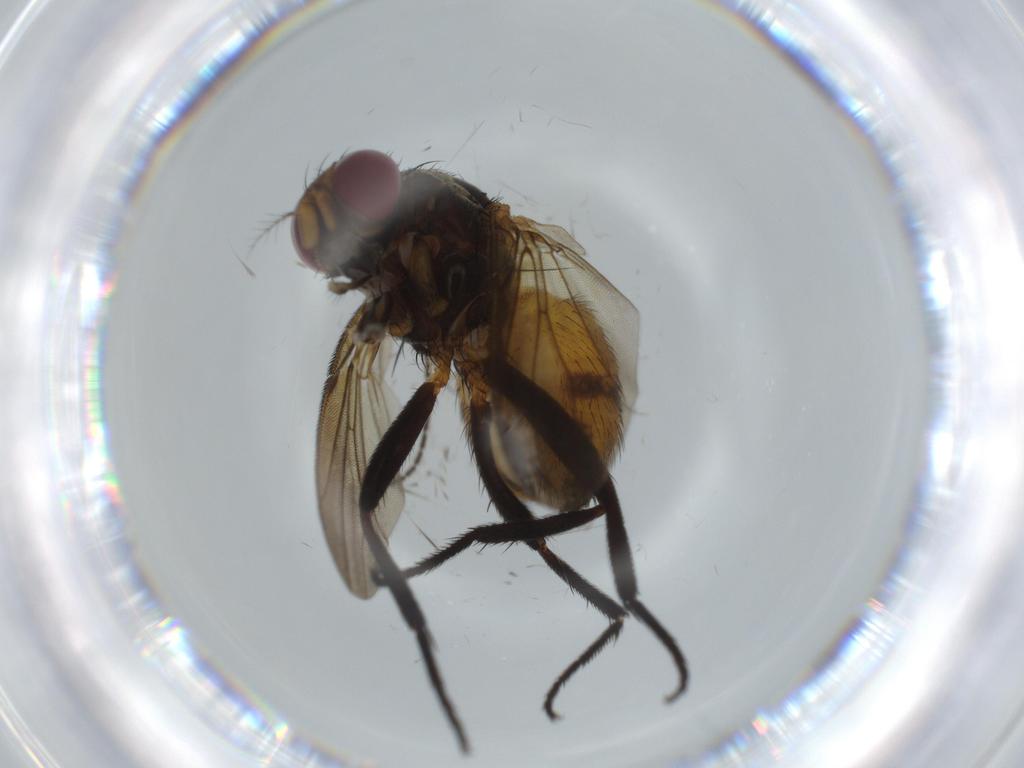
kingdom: Animalia
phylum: Arthropoda
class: Insecta
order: Diptera
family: Anthomyiidae
